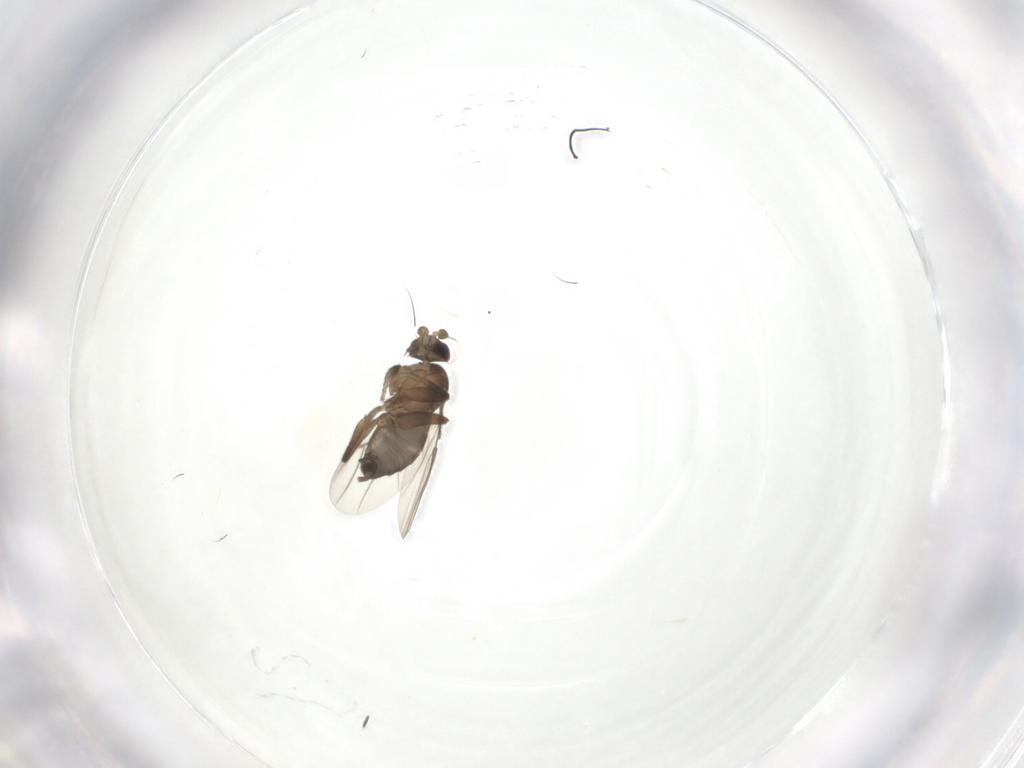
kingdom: Animalia
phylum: Arthropoda
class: Insecta
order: Diptera
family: Phoridae
